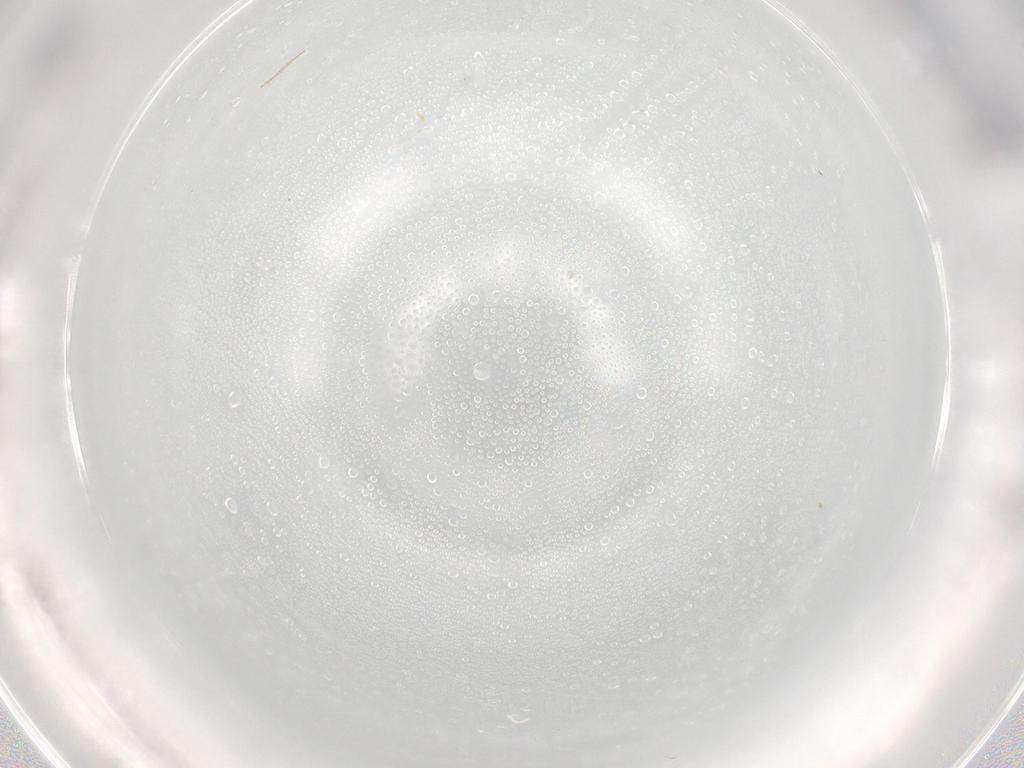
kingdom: Animalia
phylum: Arthropoda
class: Insecta
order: Diptera
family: Chironomidae
